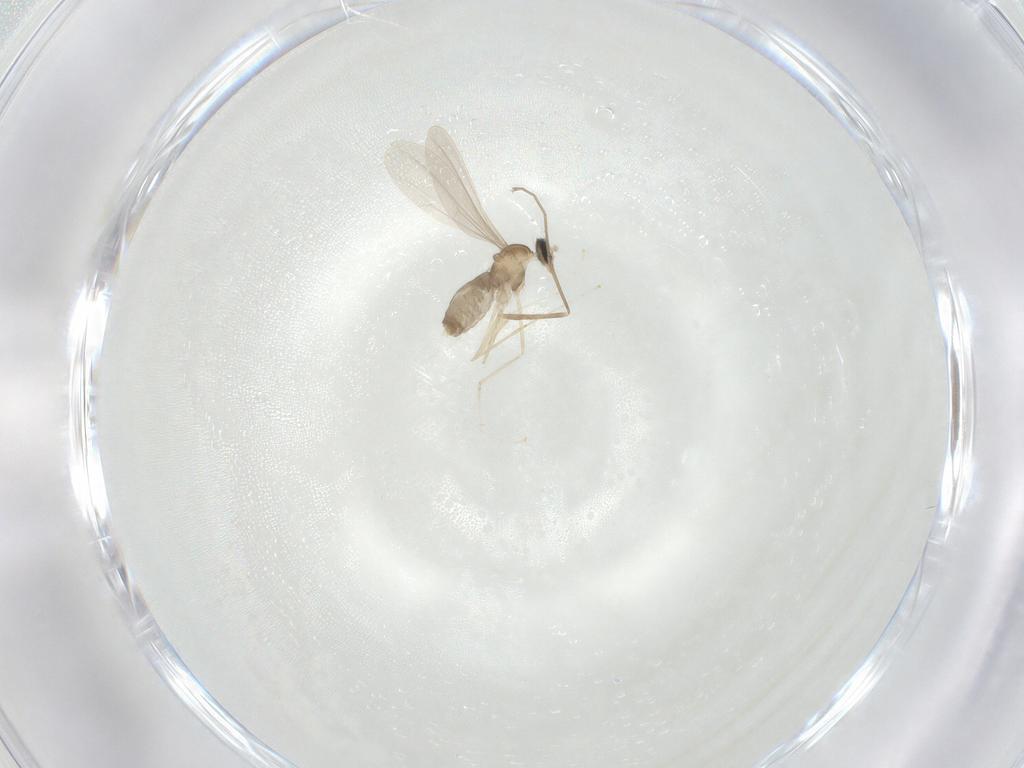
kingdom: Animalia
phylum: Arthropoda
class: Insecta
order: Diptera
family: Cecidomyiidae
